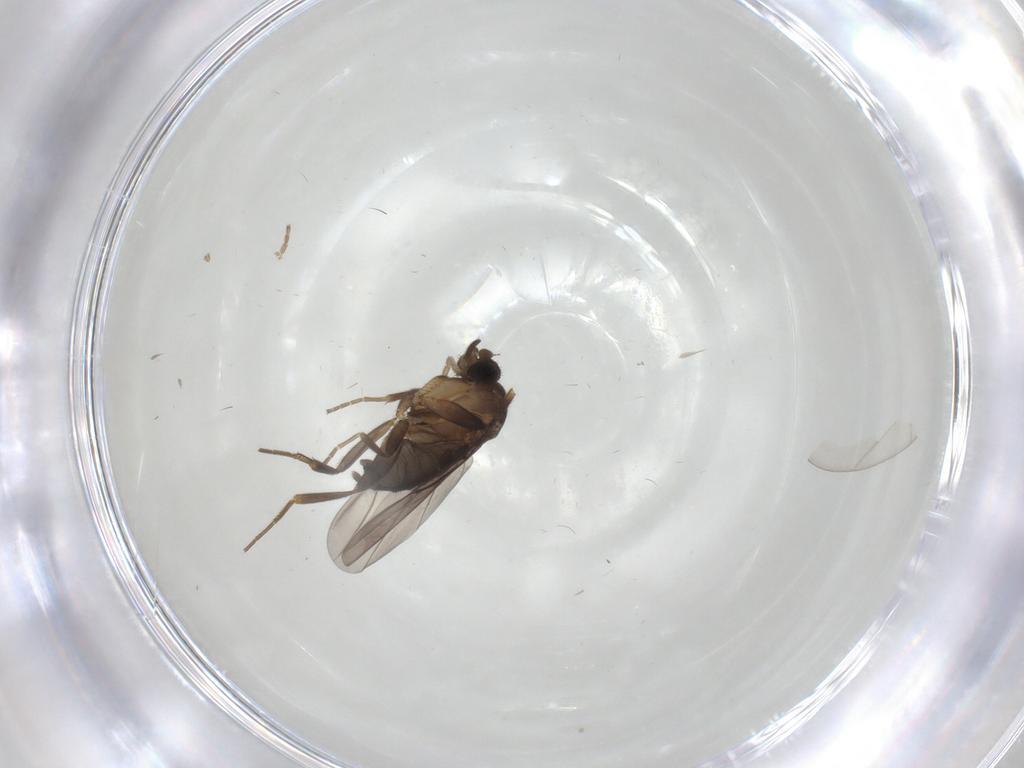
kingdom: Animalia
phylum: Arthropoda
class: Insecta
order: Diptera
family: Phoridae
